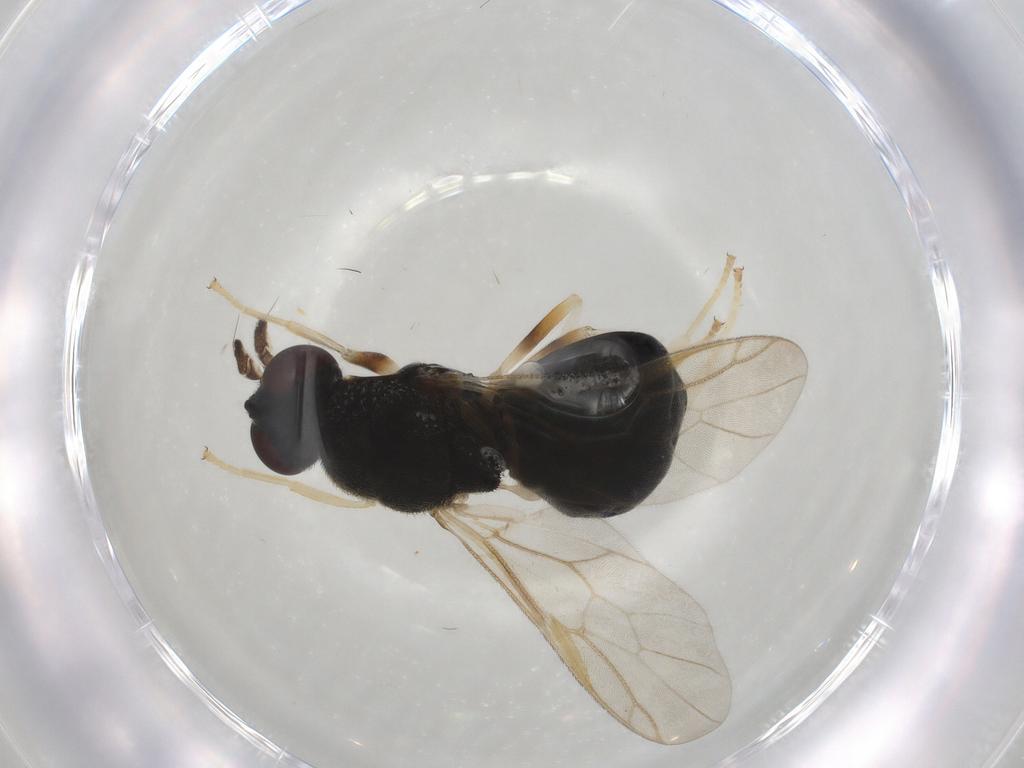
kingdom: Animalia
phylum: Arthropoda
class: Insecta
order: Diptera
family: Stratiomyidae
